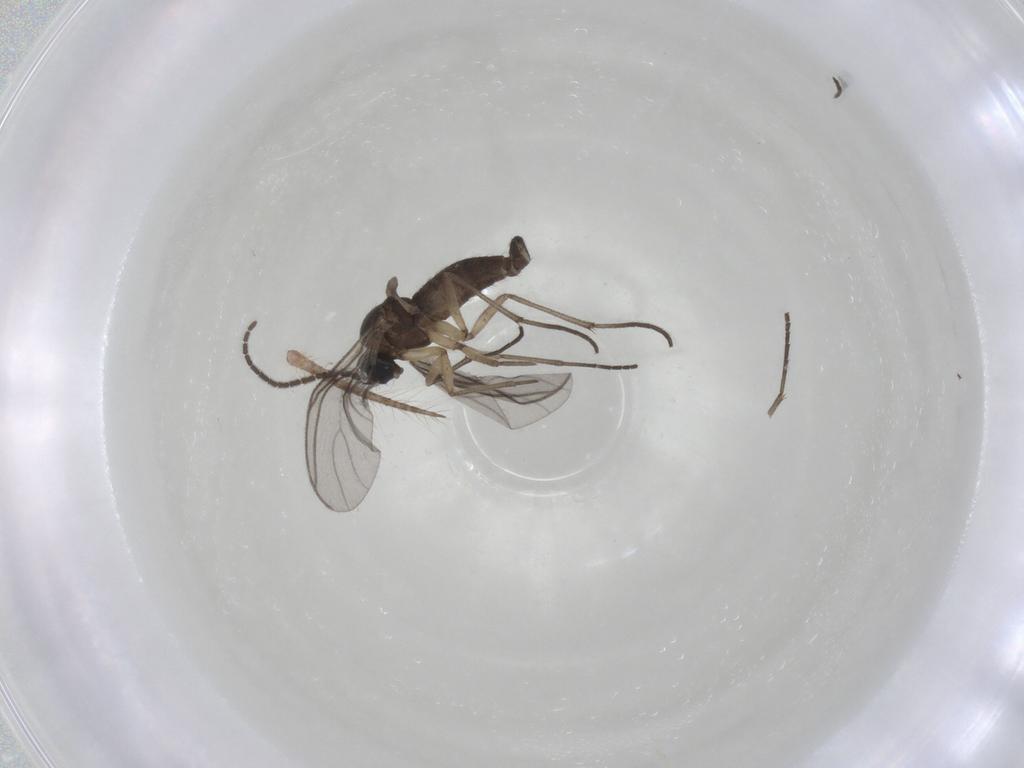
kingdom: Animalia
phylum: Arthropoda
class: Insecta
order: Diptera
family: Sciaridae
